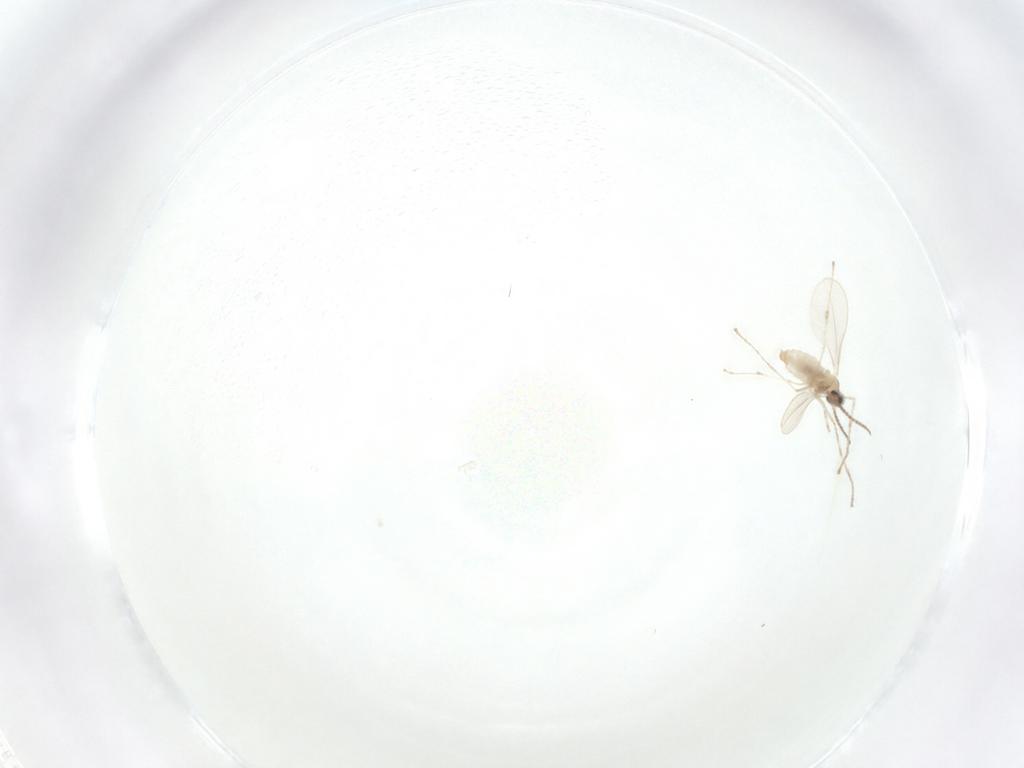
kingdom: Animalia
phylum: Arthropoda
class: Insecta
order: Diptera
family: Cecidomyiidae
